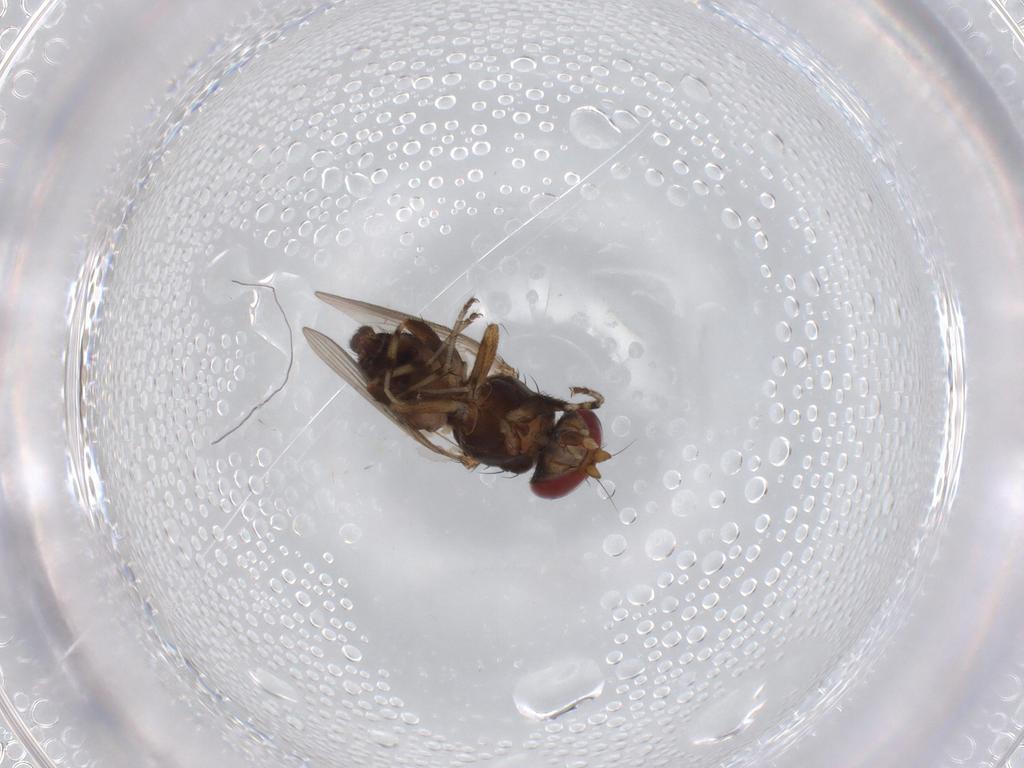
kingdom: Animalia
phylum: Arthropoda
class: Insecta
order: Diptera
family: Heleomyzidae
